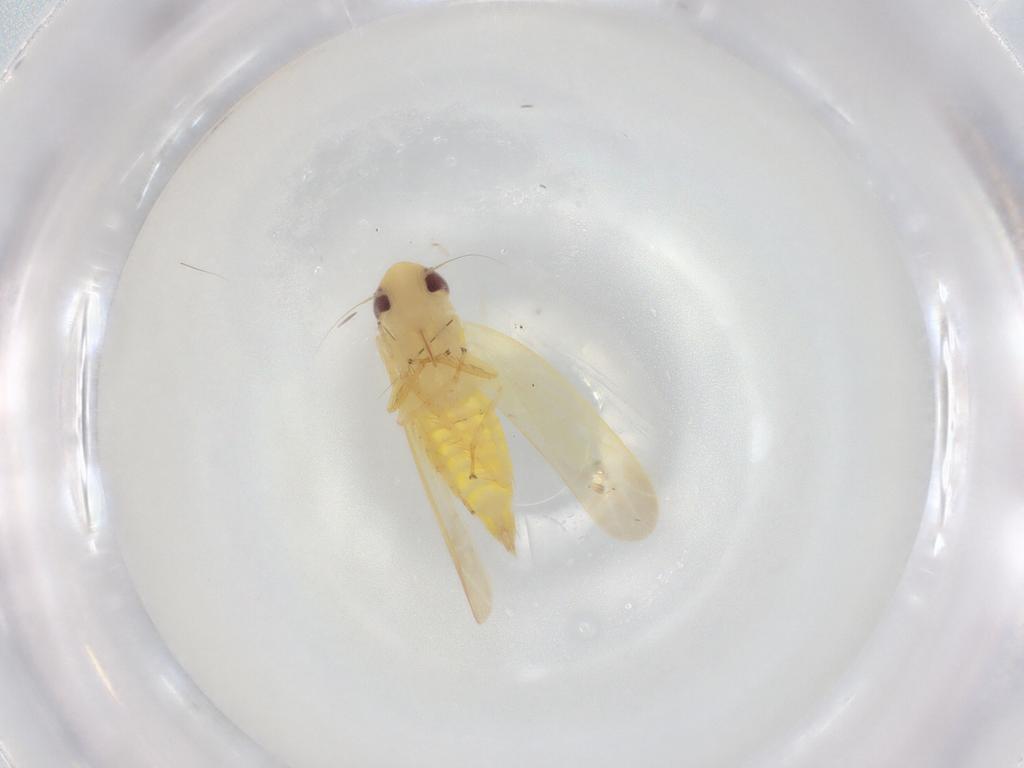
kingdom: Animalia
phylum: Arthropoda
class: Insecta
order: Hemiptera
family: Cicadellidae
